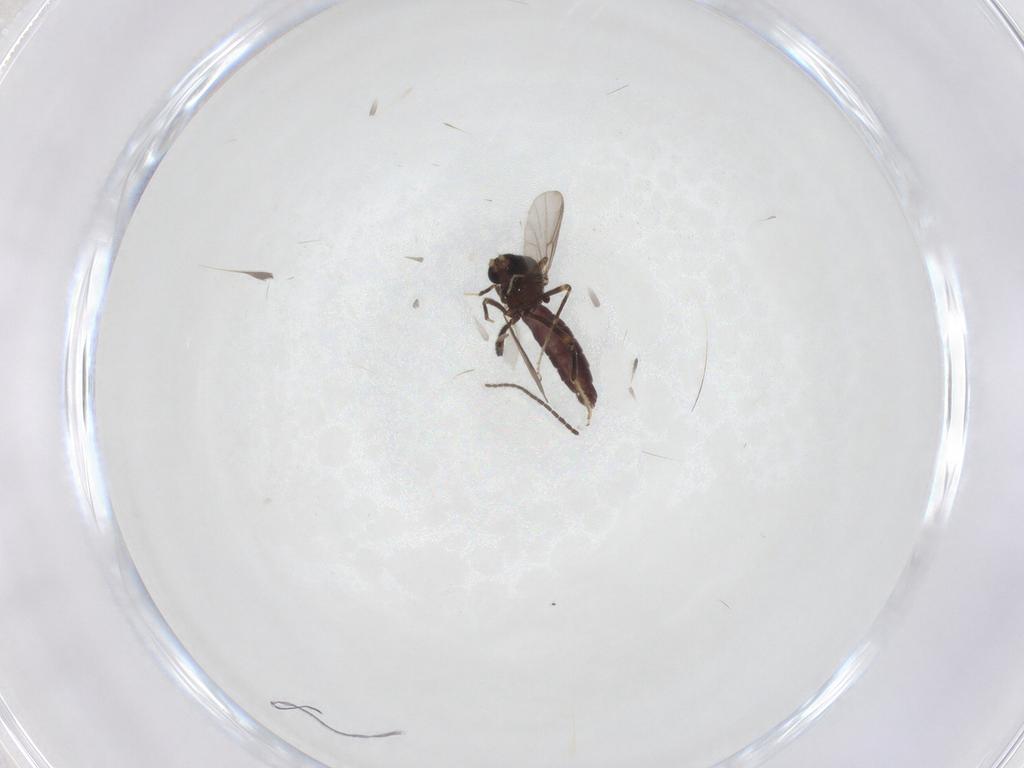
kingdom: Animalia
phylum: Arthropoda
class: Insecta
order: Diptera
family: Sciaridae
